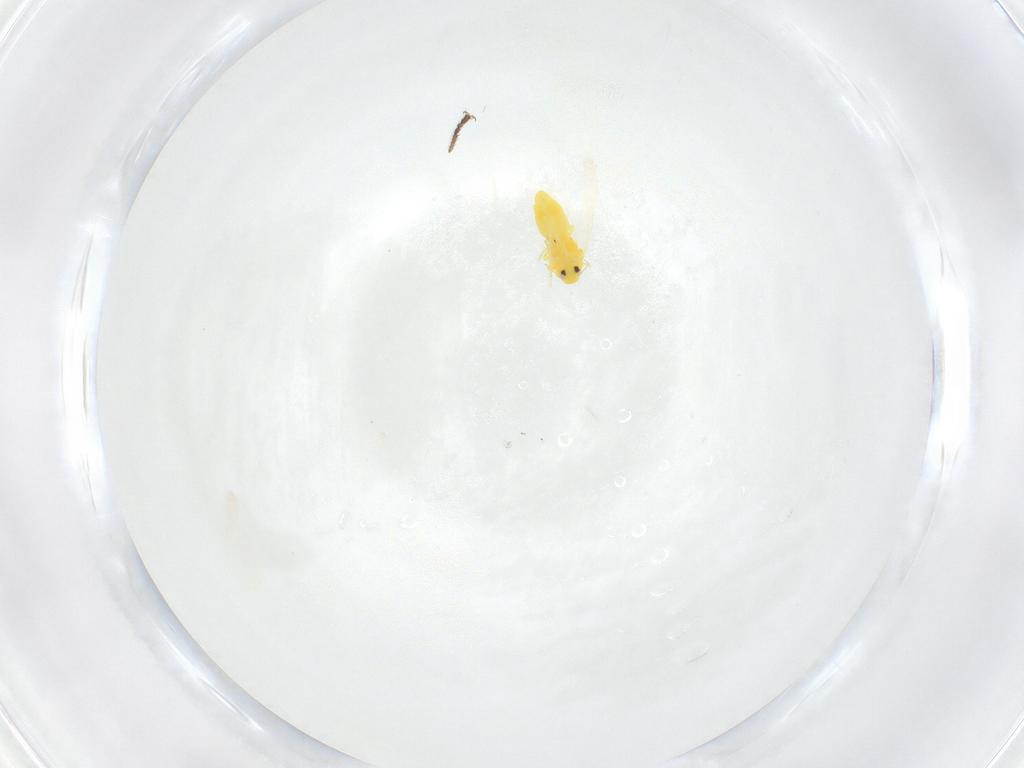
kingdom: Animalia
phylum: Arthropoda
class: Insecta
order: Hemiptera
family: Aleyrodidae
